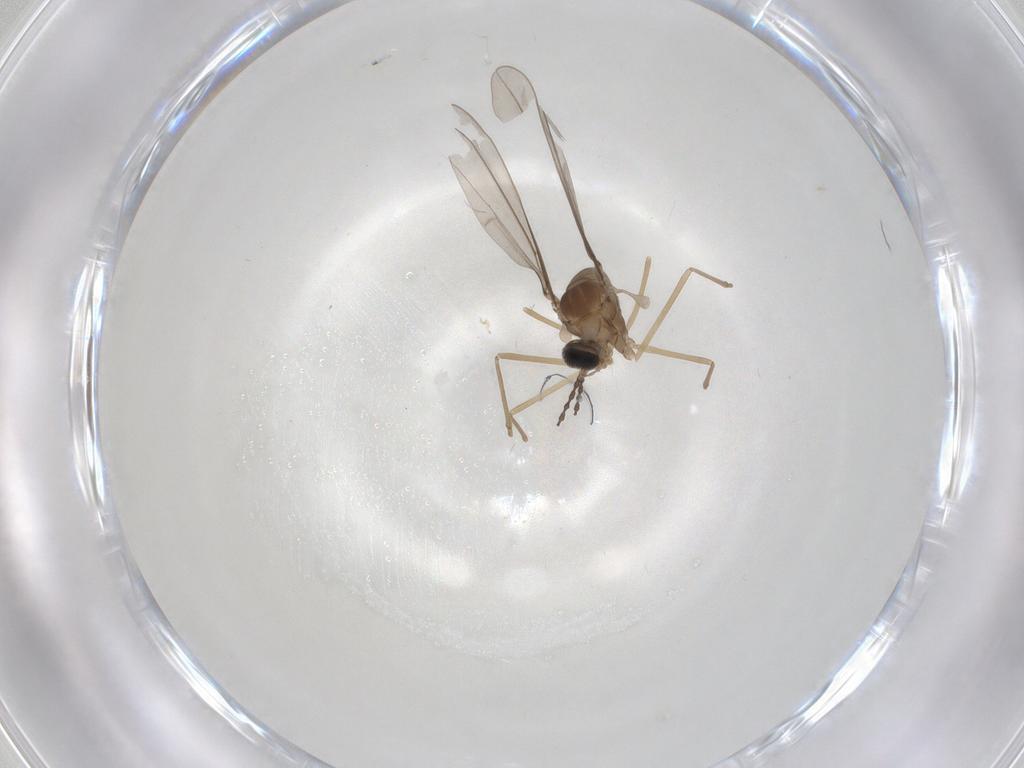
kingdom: Animalia
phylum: Arthropoda
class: Insecta
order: Diptera
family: Cecidomyiidae
